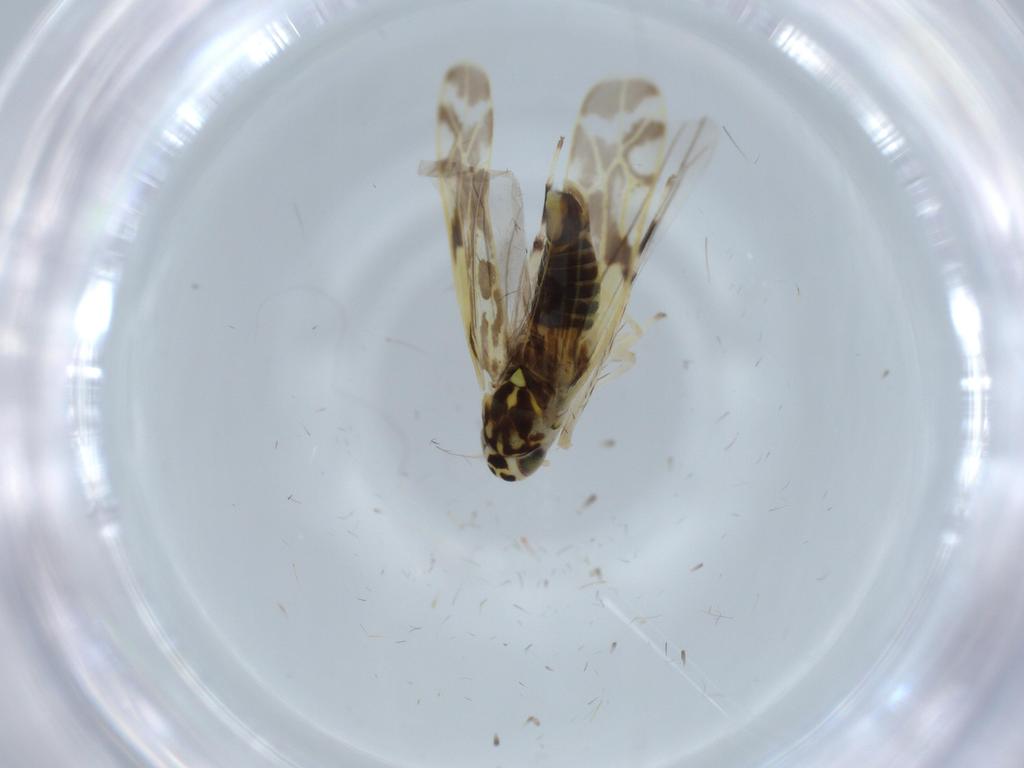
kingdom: Animalia
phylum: Arthropoda
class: Insecta
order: Hemiptera
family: Cicadellidae
